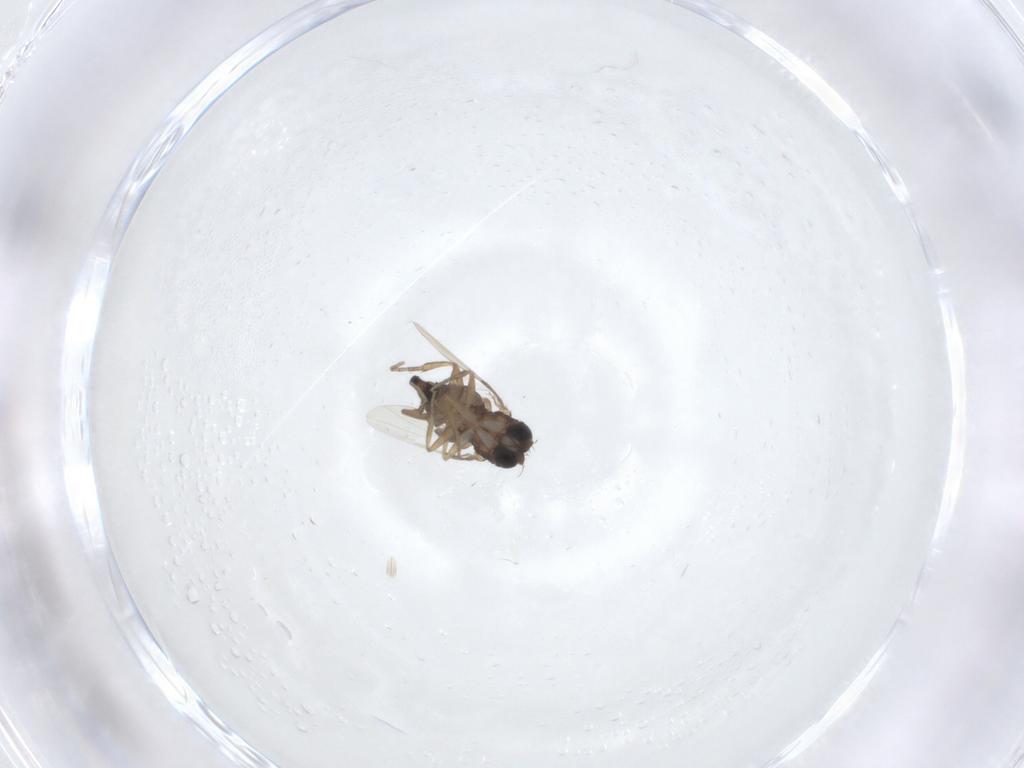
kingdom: Animalia
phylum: Arthropoda
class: Insecta
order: Diptera
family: Phoridae
